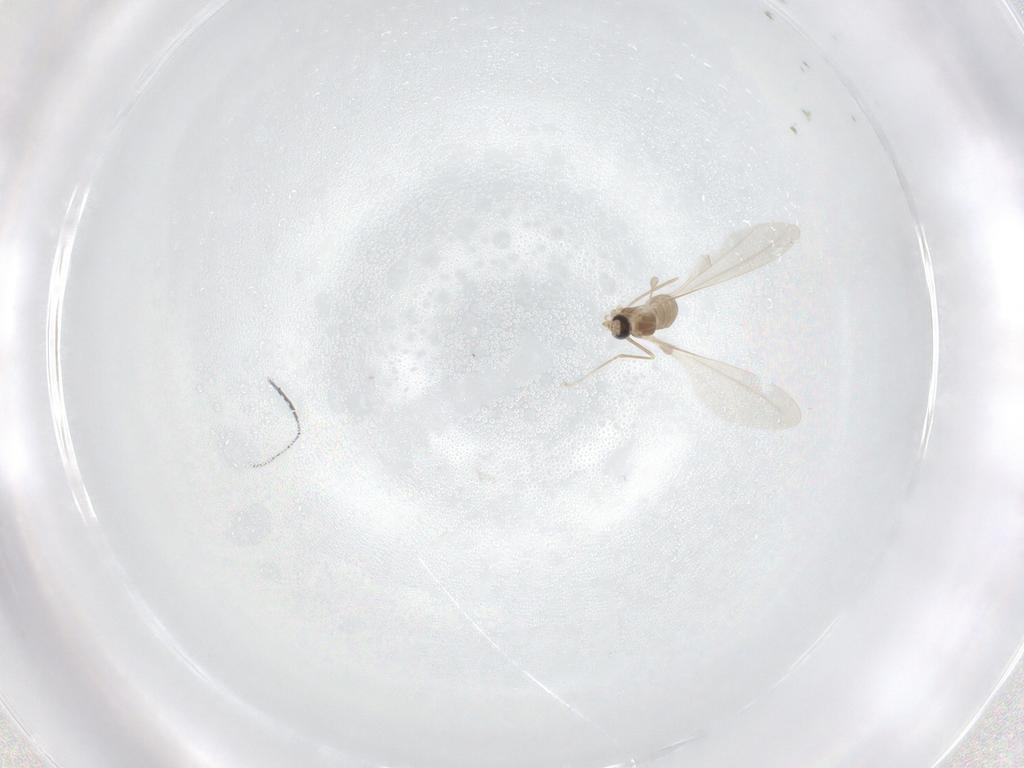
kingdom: Animalia
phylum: Arthropoda
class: Insecta
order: Diptera
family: Cecidomyiidae
